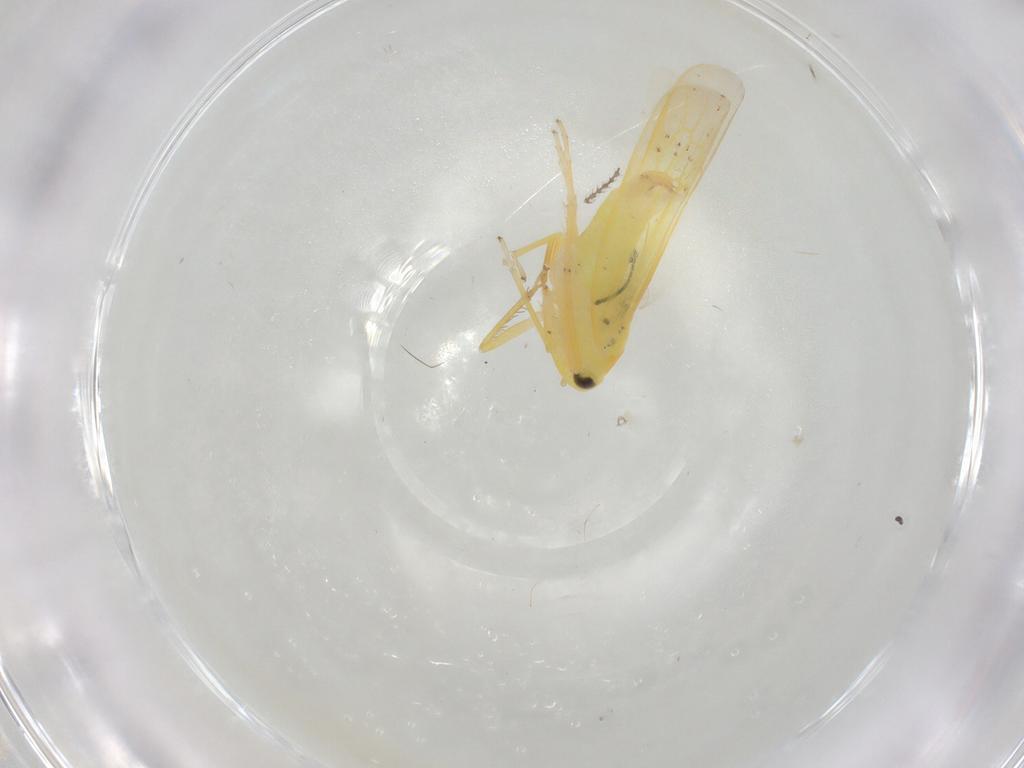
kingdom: Animalia
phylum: Arthropoda
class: Insecta
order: Hemiptera
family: Cicadellidae
